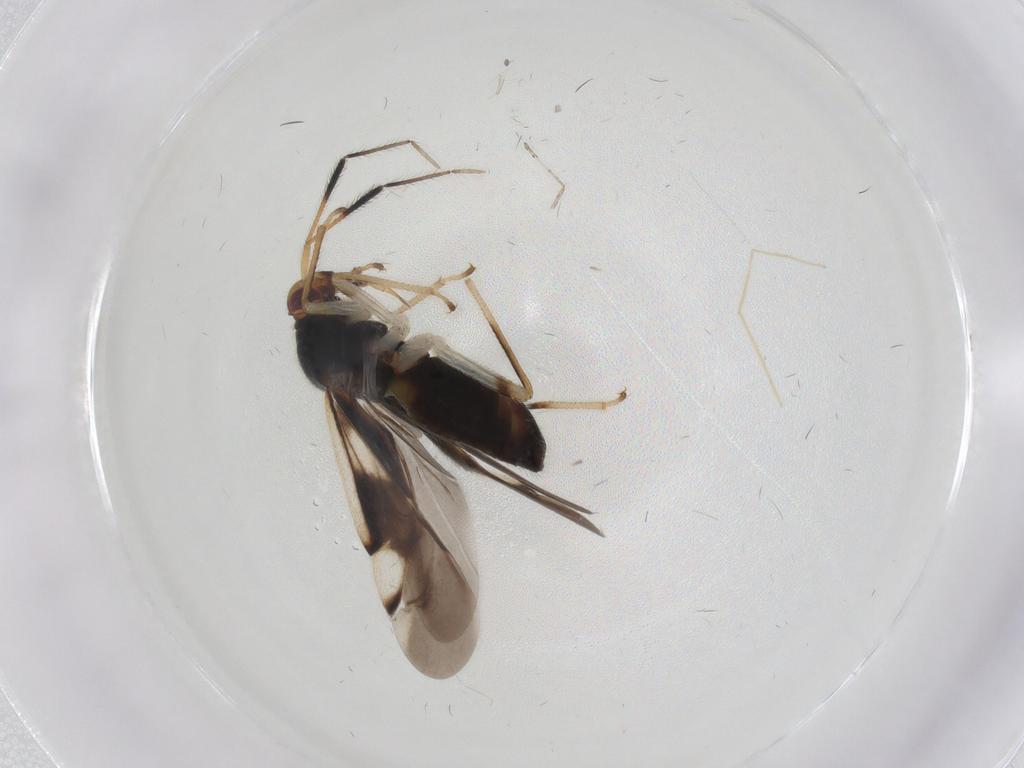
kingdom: Animalia
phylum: Arthropoda
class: Insecta
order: Hemiptera
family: Miridae
